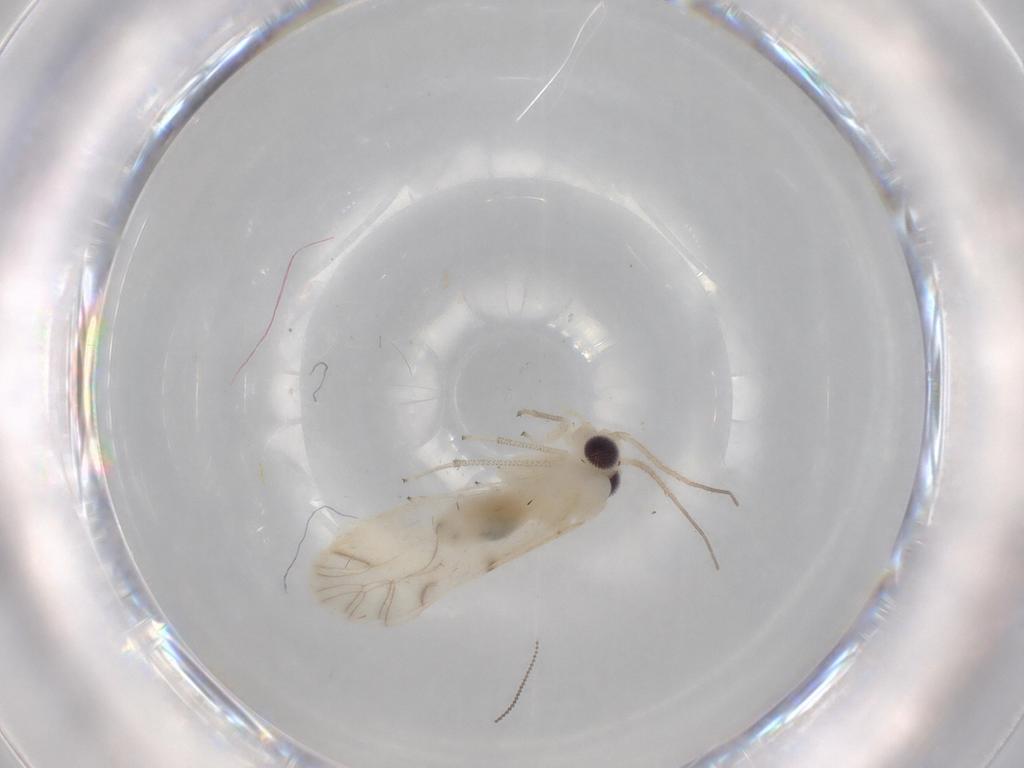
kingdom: Animalia
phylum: Arthropoda
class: Insecta
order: Psocodea
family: Caeciliusidae
